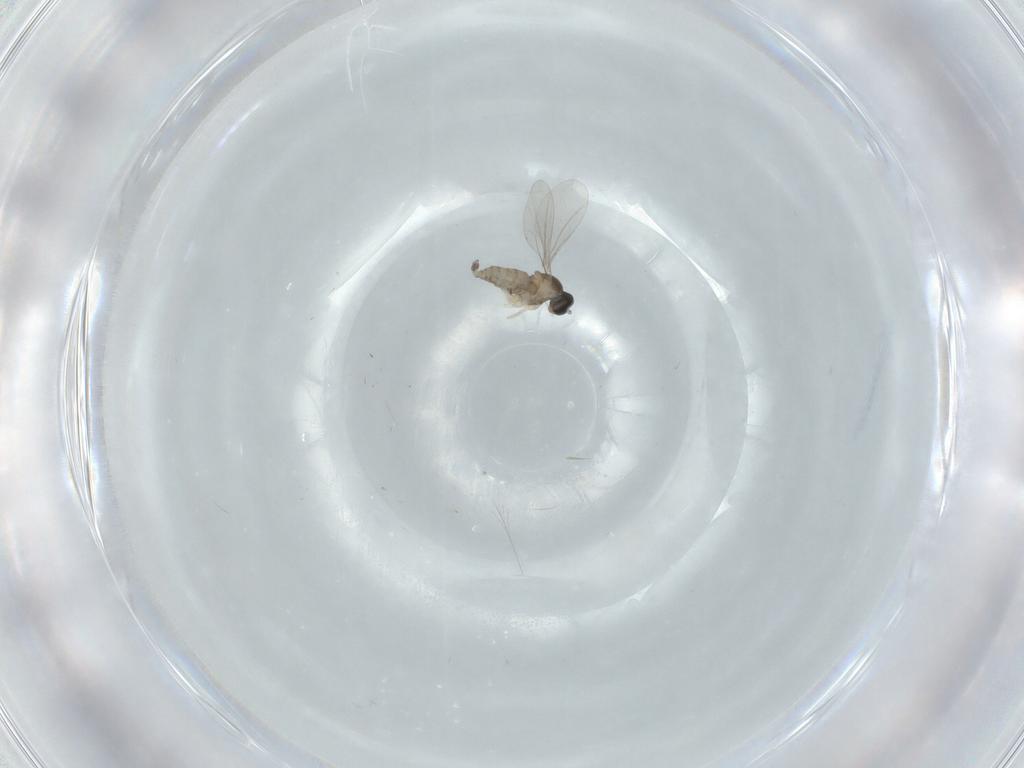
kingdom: Animalia
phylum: Arthropoda
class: Insecta
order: Diptera
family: Cecidomyiidae
